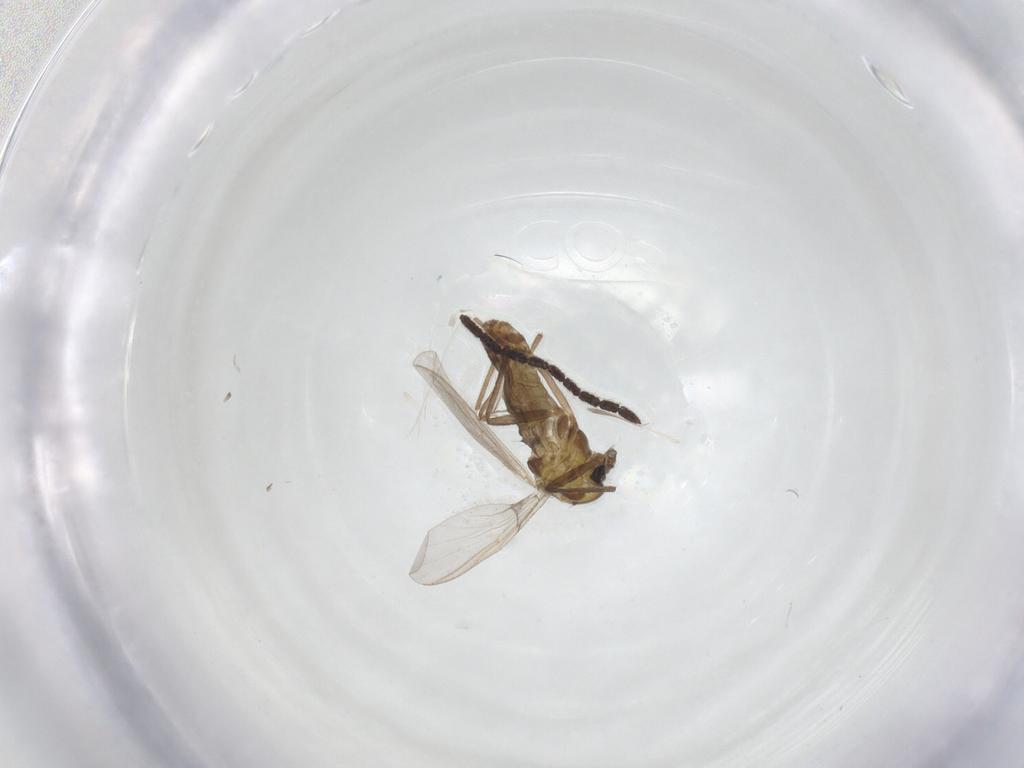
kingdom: Animalia
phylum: Arthropoda
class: Insecta
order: Diptera
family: Chironomidae
